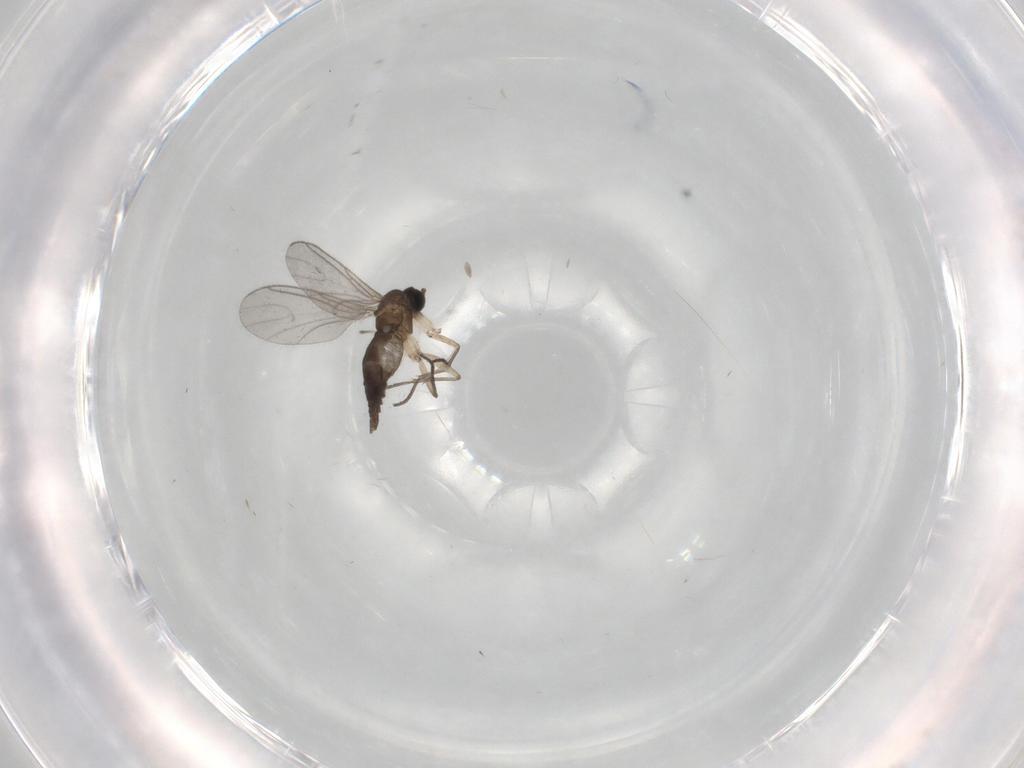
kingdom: Animalia
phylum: Arthropoda
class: Insecta
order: Diptera
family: Sciaridae
